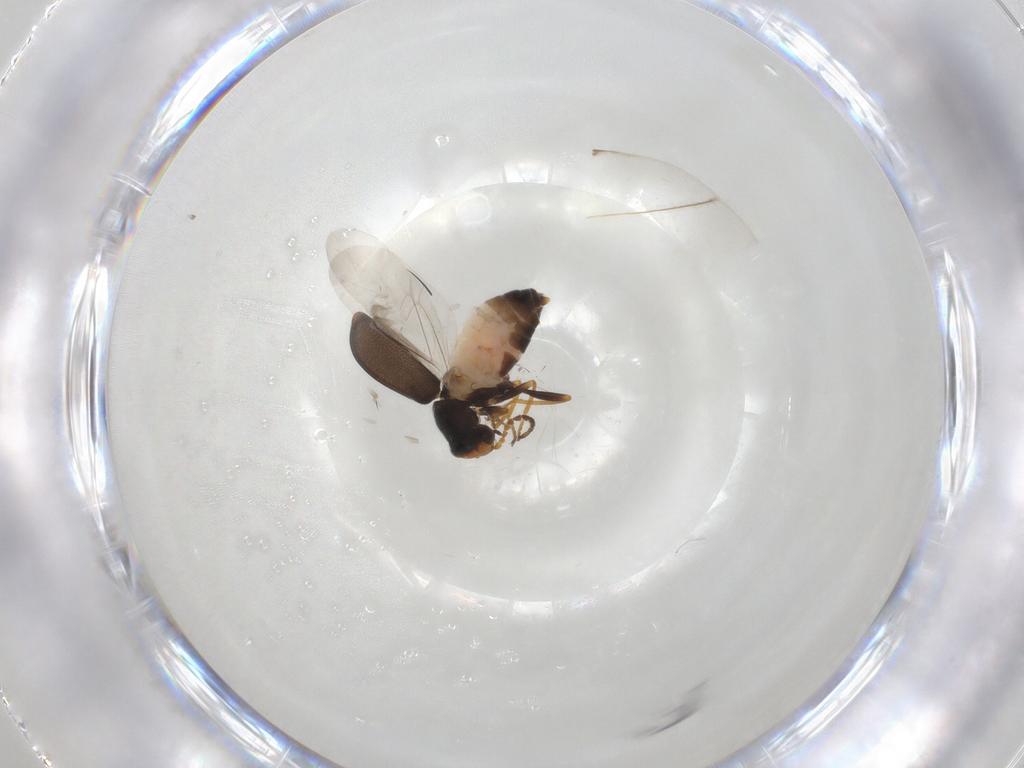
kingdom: Animalia
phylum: Arthropoda
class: Insecta
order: Coleoptera
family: Melyridae
